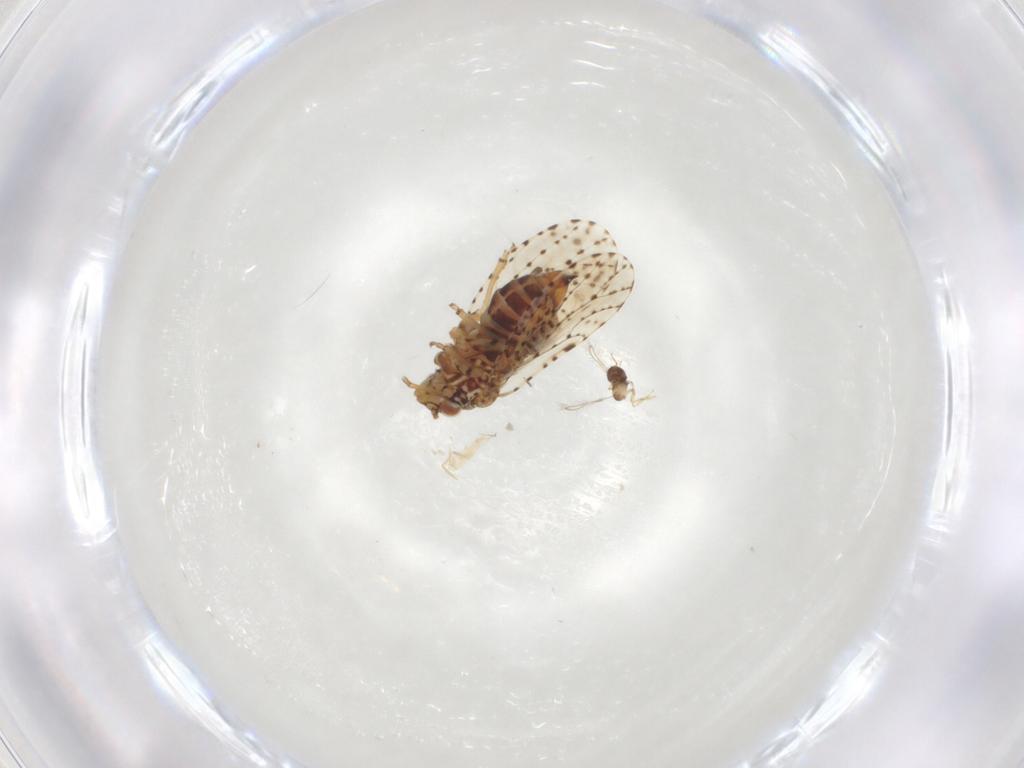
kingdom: Animalia
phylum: Arthropoda
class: Insecta
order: Diptera
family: Cecidomyiidae
